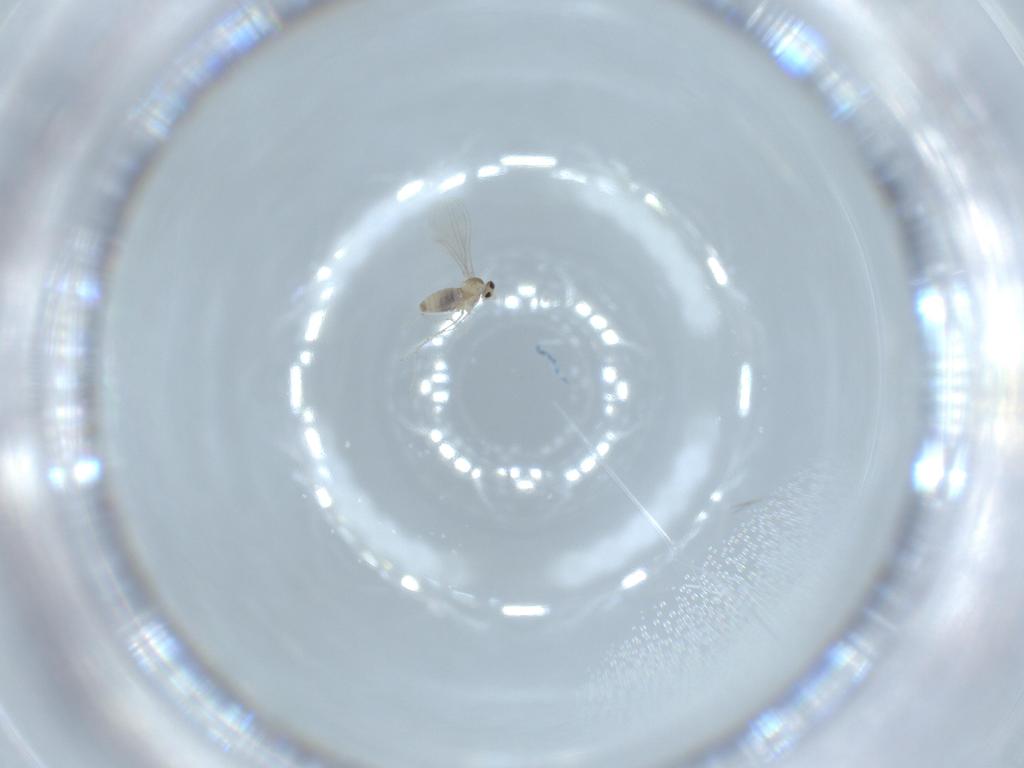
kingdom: Animalia
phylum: Arthropoda
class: Insecta
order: Diptera
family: Cecidomyiidae
